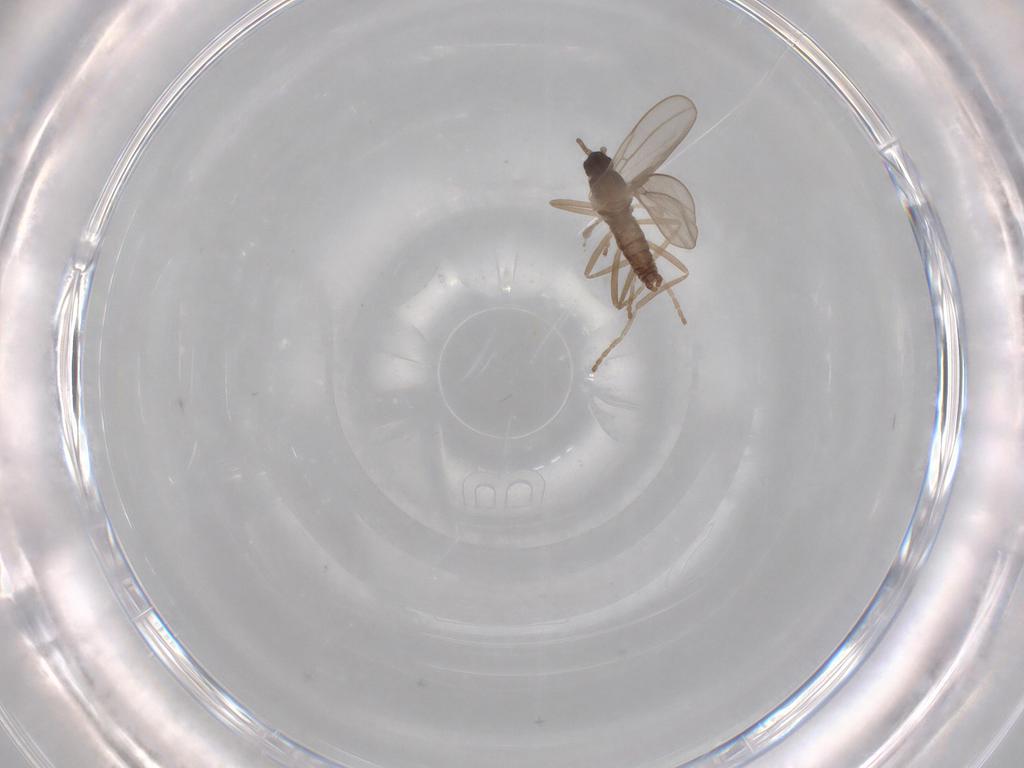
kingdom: Animalia
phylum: Arthropoda
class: Insecta
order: Diptera
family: Cecidomyiidae
